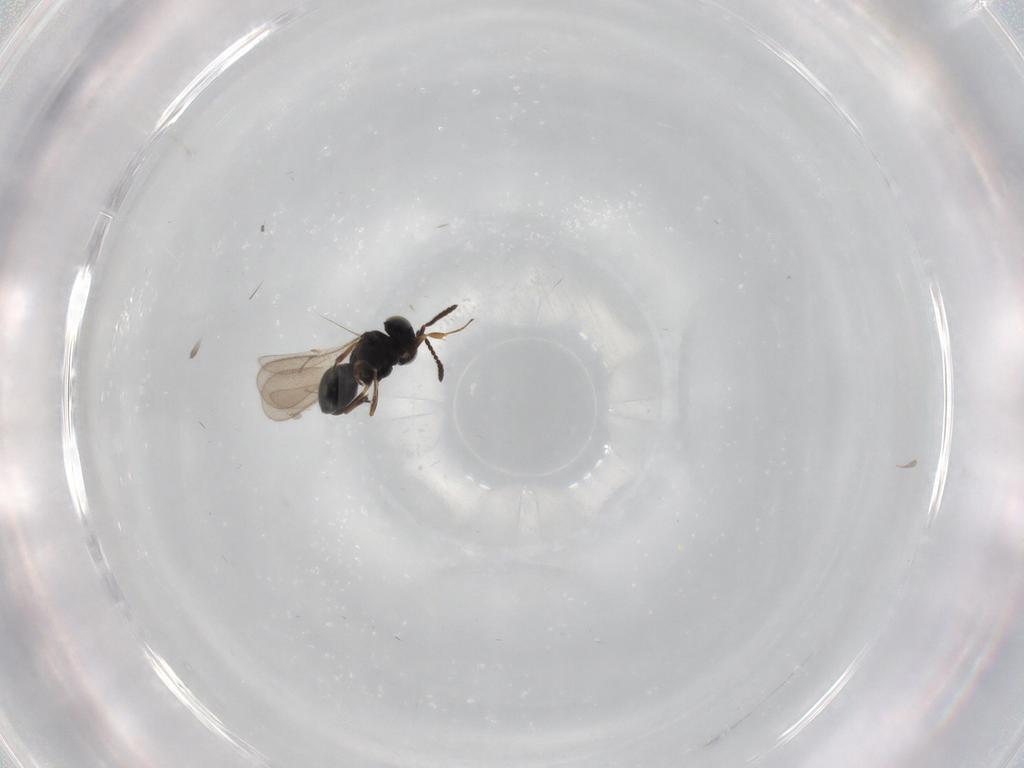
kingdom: Animalia
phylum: Arthropoda
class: Insecta
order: Hymenoptera
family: Scelionidae
